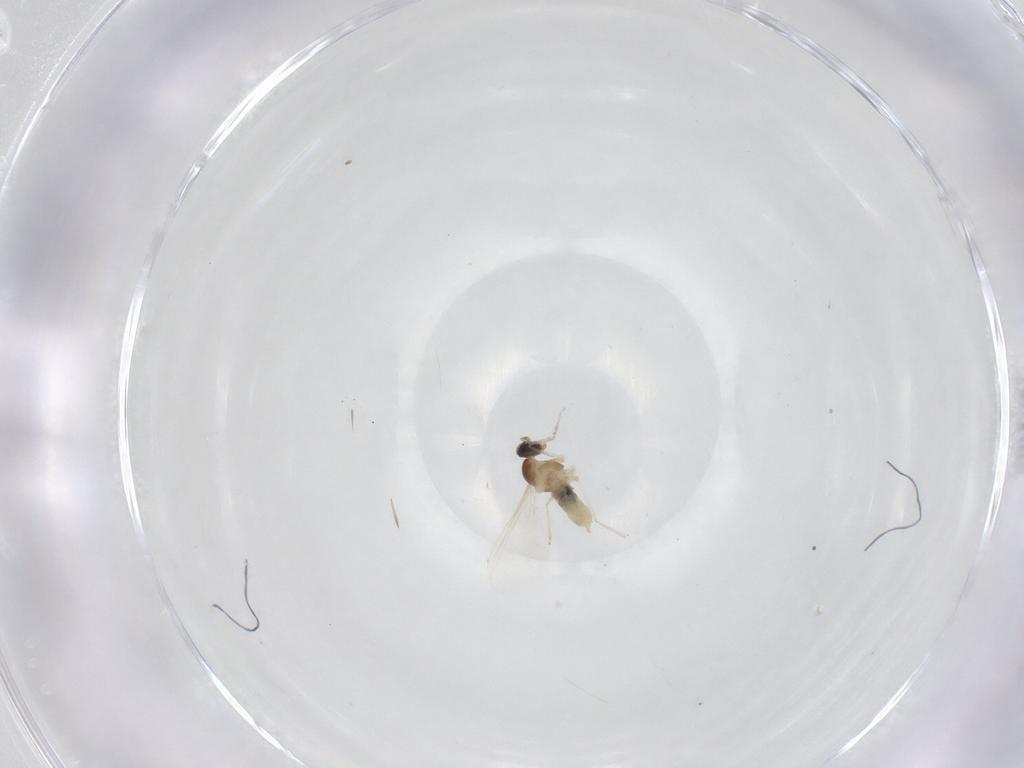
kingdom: Animalia
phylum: Arthropoda
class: Insecta
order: Diptera
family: Cecidomyiidae
